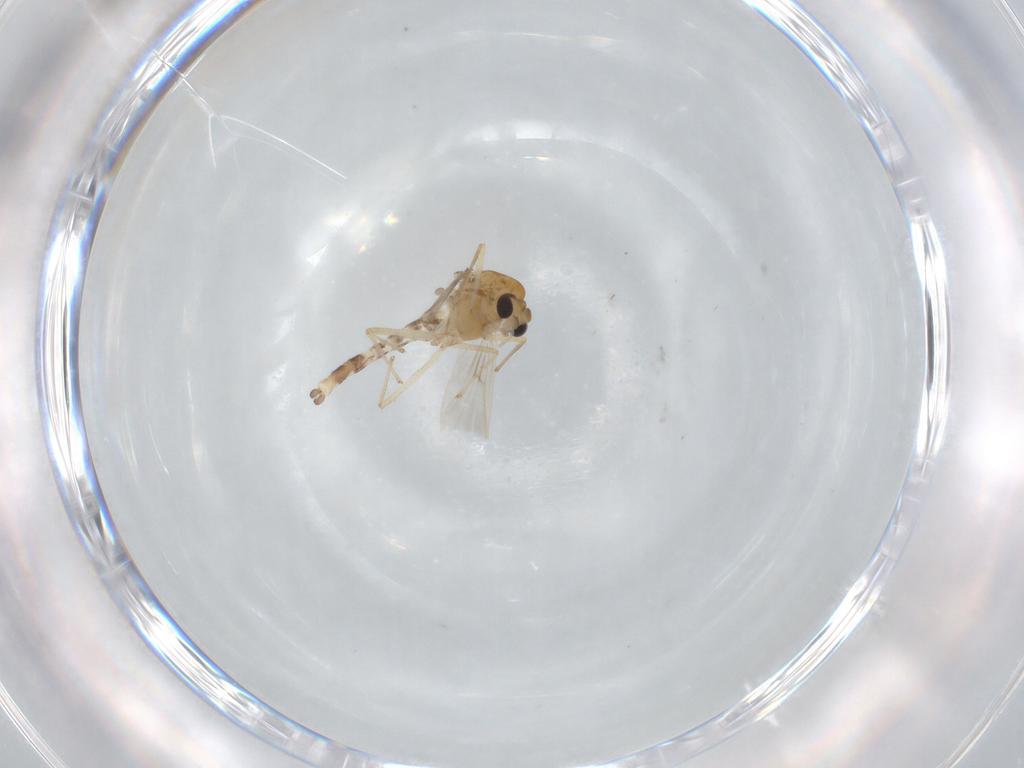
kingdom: Animalia
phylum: Arthropoda
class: Insecta
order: Diptera
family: Chironomidae
